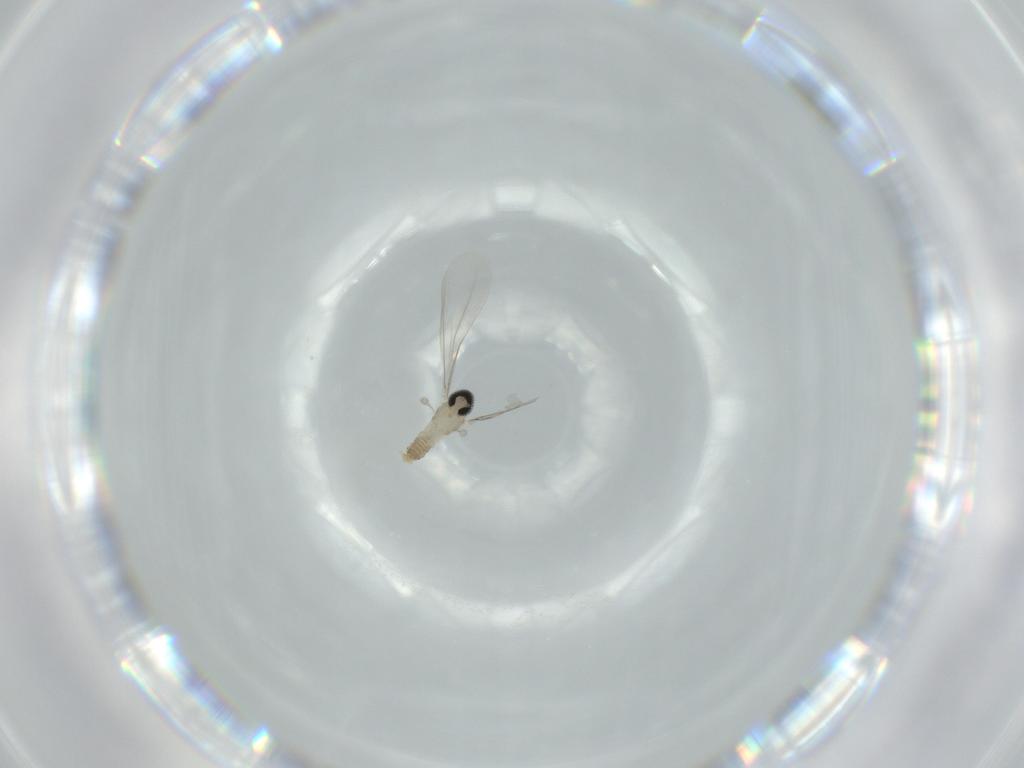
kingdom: Animalia
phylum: Arthropoda
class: Insecta
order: Diptera
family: Cecidomyiidae
